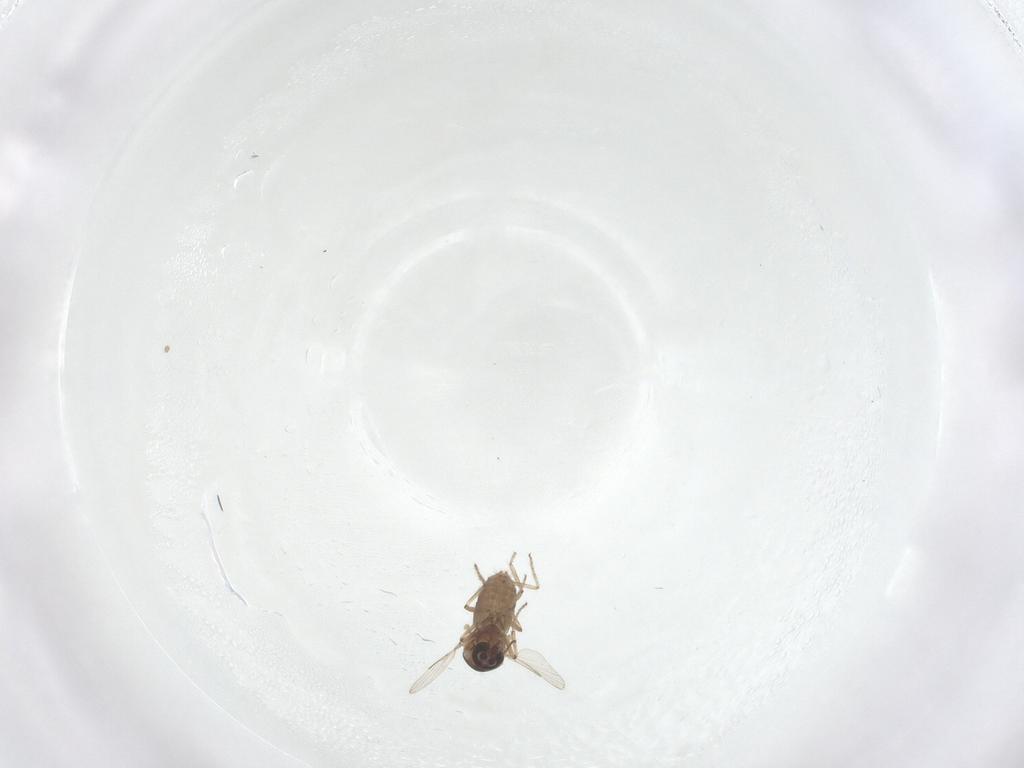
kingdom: Animalia
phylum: Arthropoda
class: Insecta
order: Diptera
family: Ceratopogonidae
